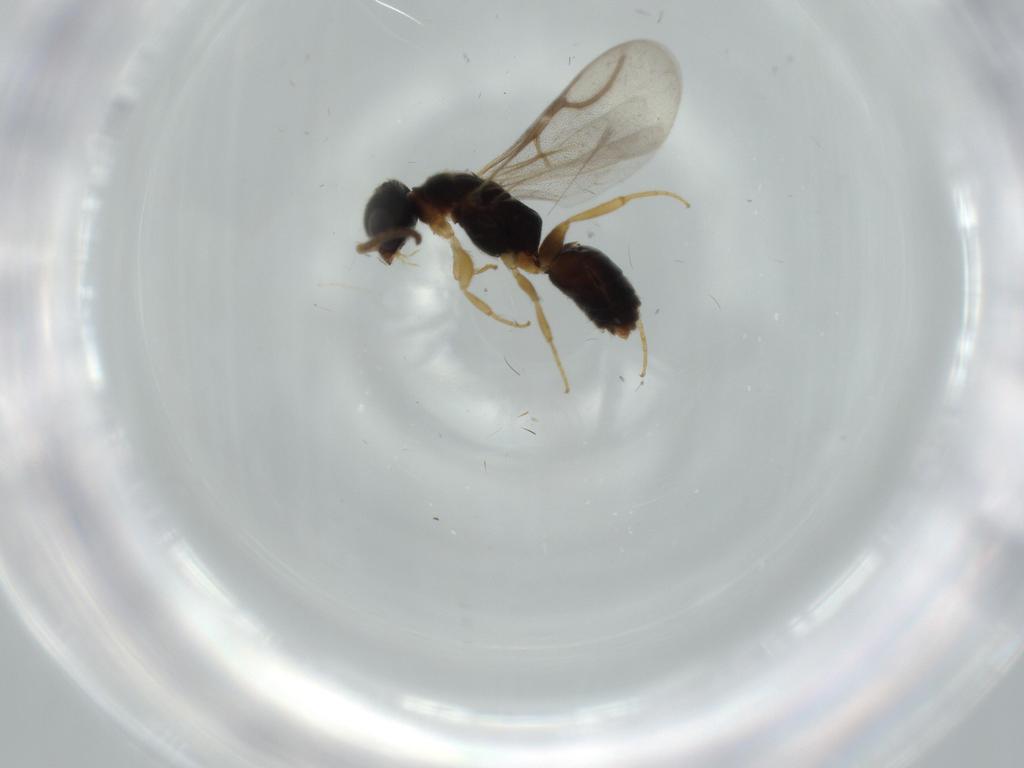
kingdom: Animalia
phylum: Arthropoda
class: Insecta
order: Hymenoptera
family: Bethylidae
